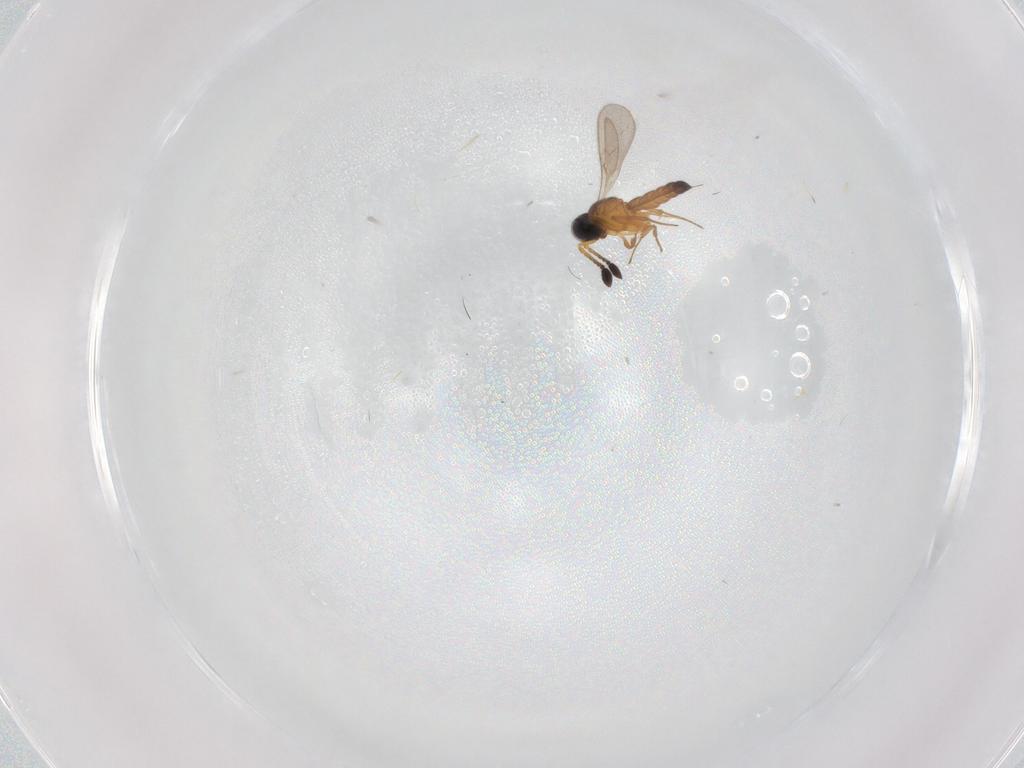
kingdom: Animalia
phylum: Arthropoda
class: Insecta
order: Hymenoptera
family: Scelionidae
